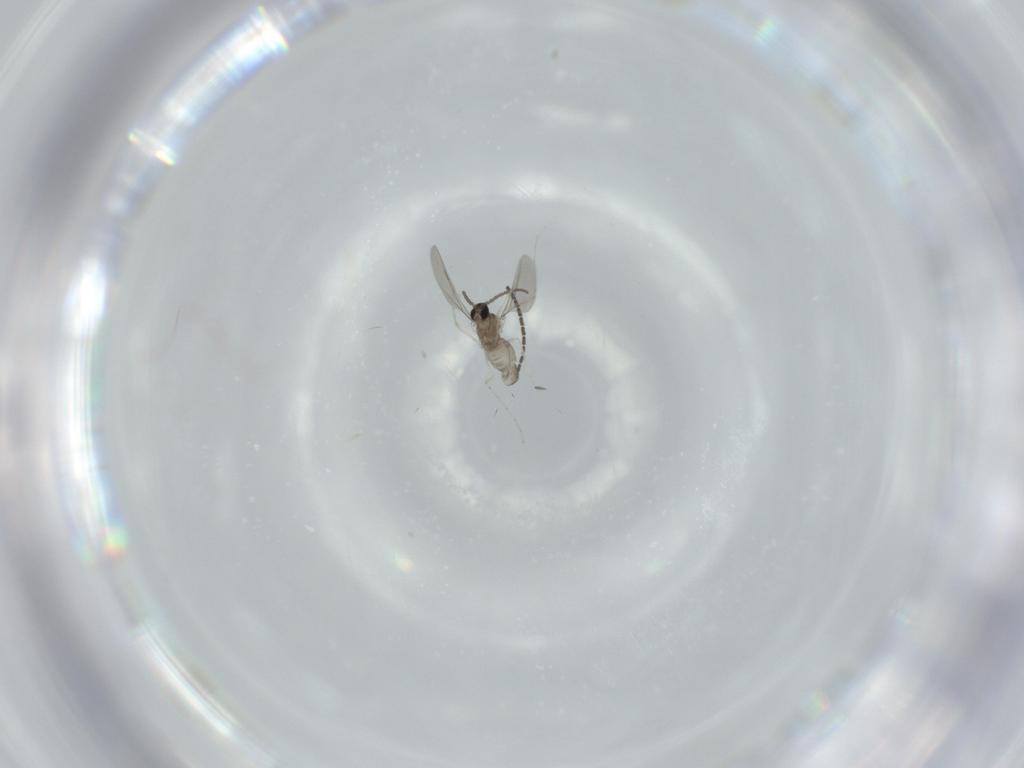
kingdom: Animalia
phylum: Arthropoda
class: Insecta
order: Diptera
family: Cecidomyiidae
